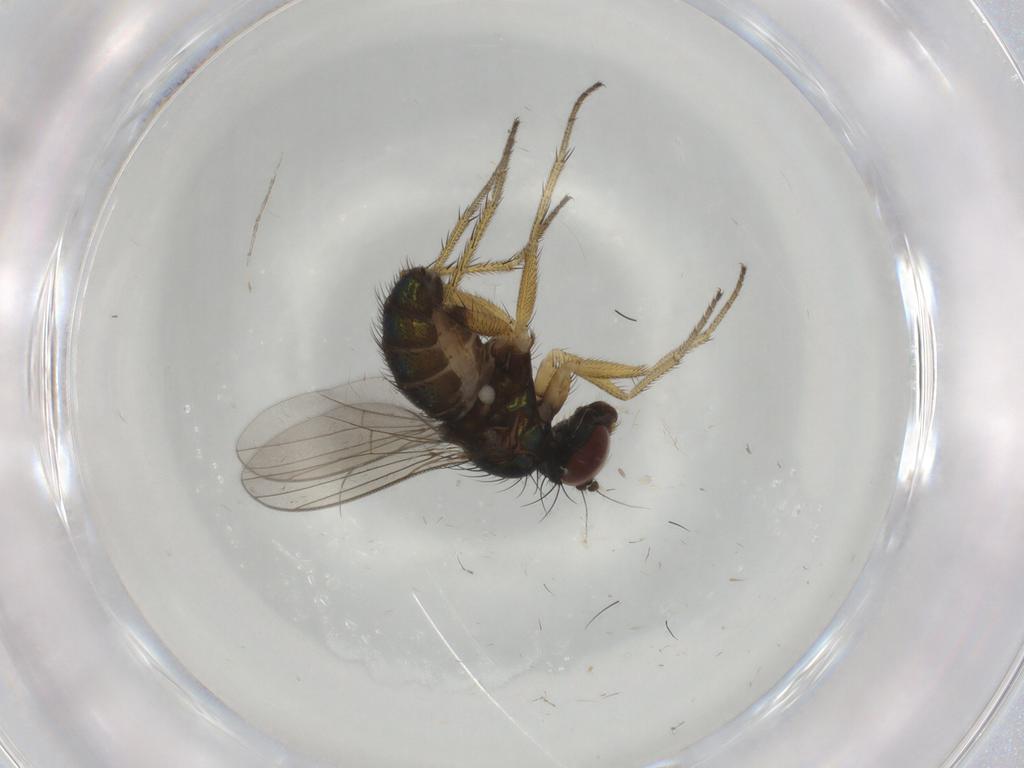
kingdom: Animalia
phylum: Arthropoda
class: Insecta
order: Diptera
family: Dolichopodidae
